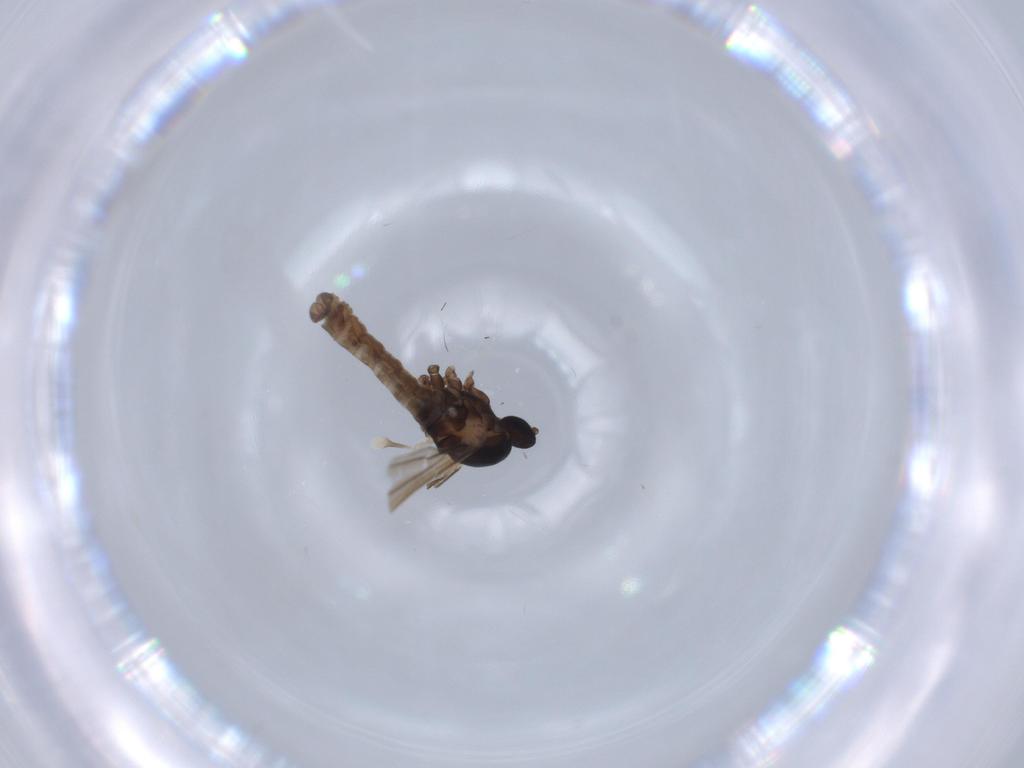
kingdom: Animalia
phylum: Arthropoda
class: Insecta
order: Diptera
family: Cecidomyiidae
